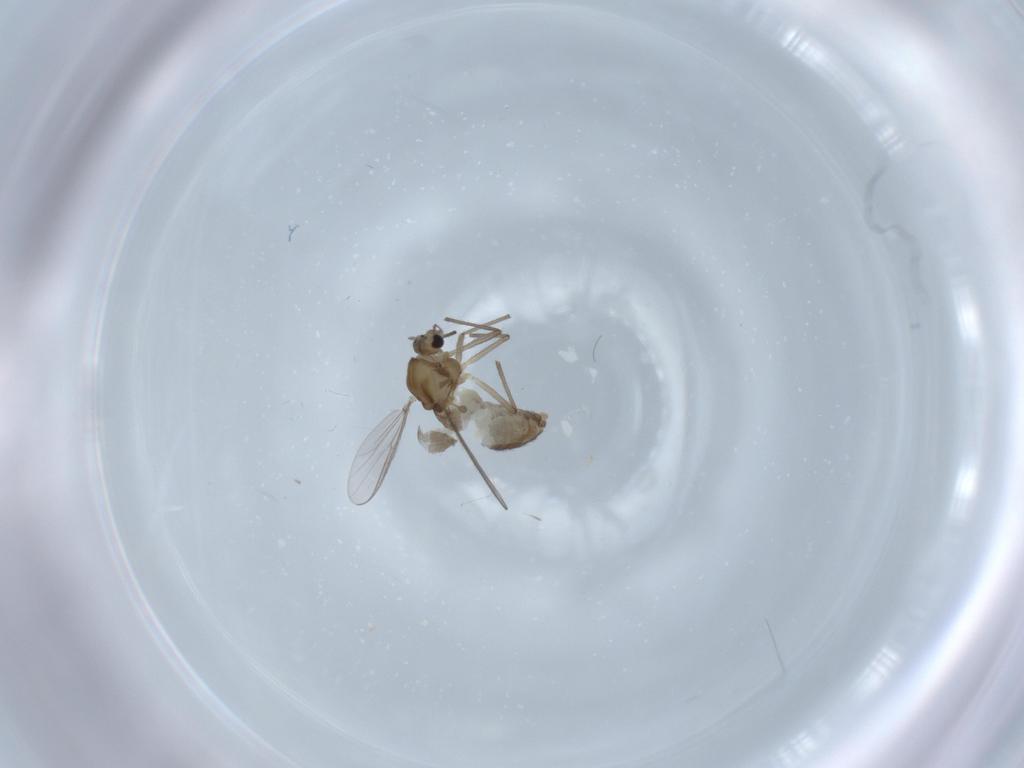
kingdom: Animalia
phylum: Arthropoda
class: Insecta
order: Diptera
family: Chironomidae
